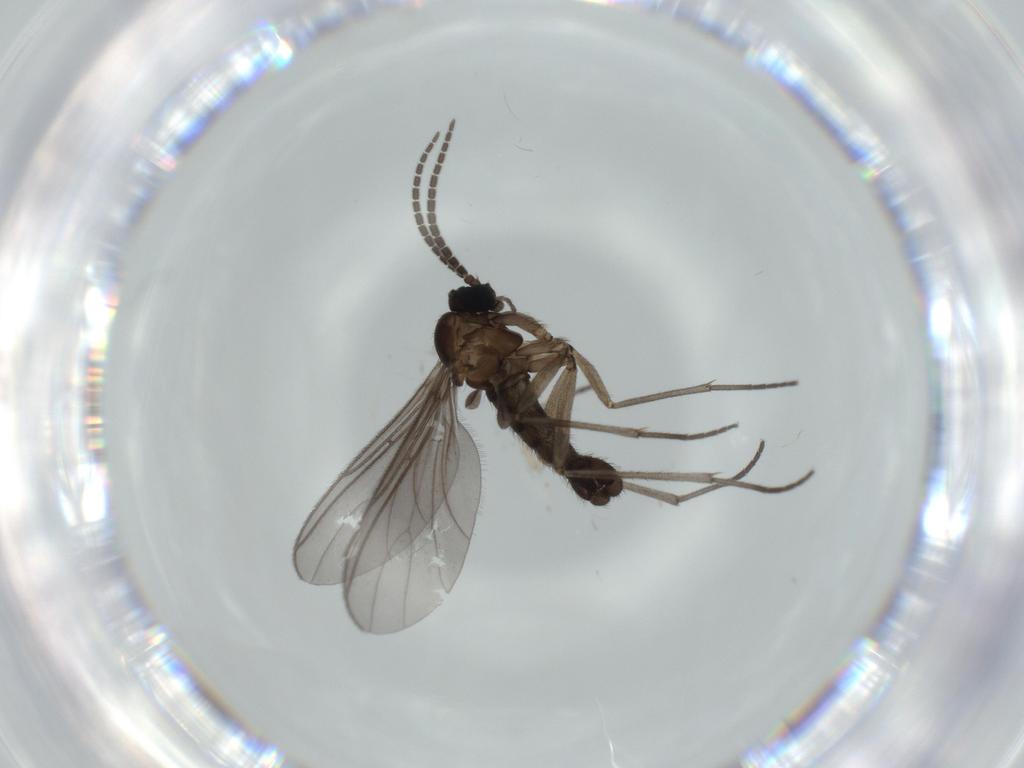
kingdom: Animalia
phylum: Arthropoda
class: Insecta
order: Diptera
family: Sciaridae
